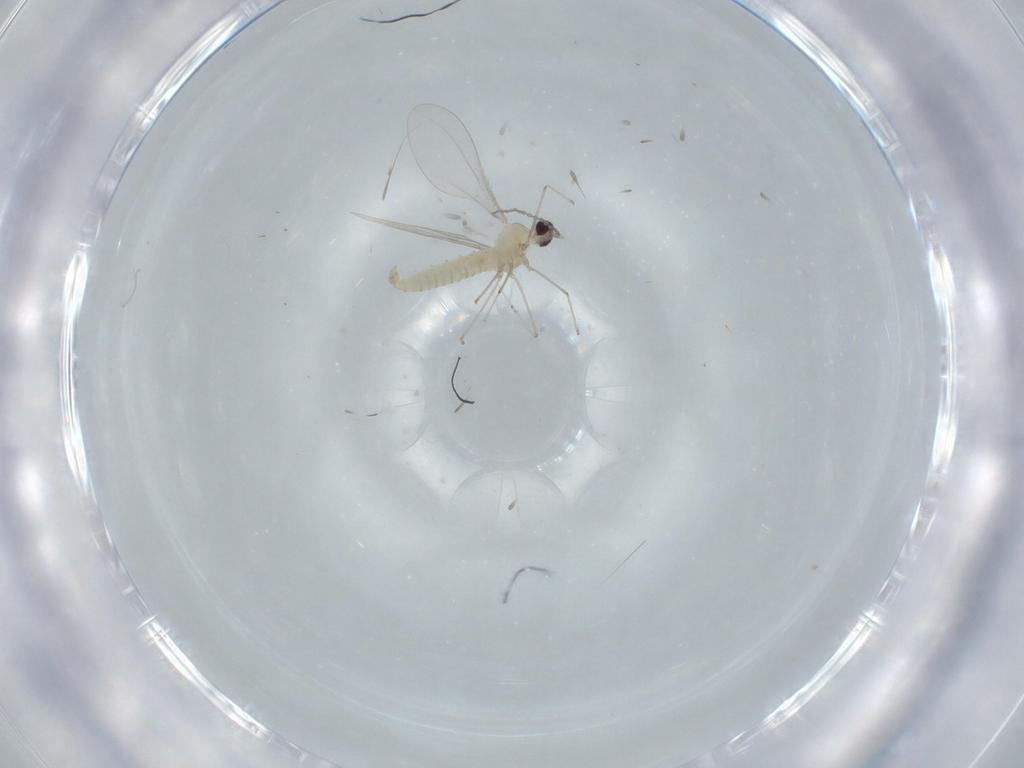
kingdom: Animalia
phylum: Arthropoda
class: Insecta
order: Diptera
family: Cecidomyiidae
